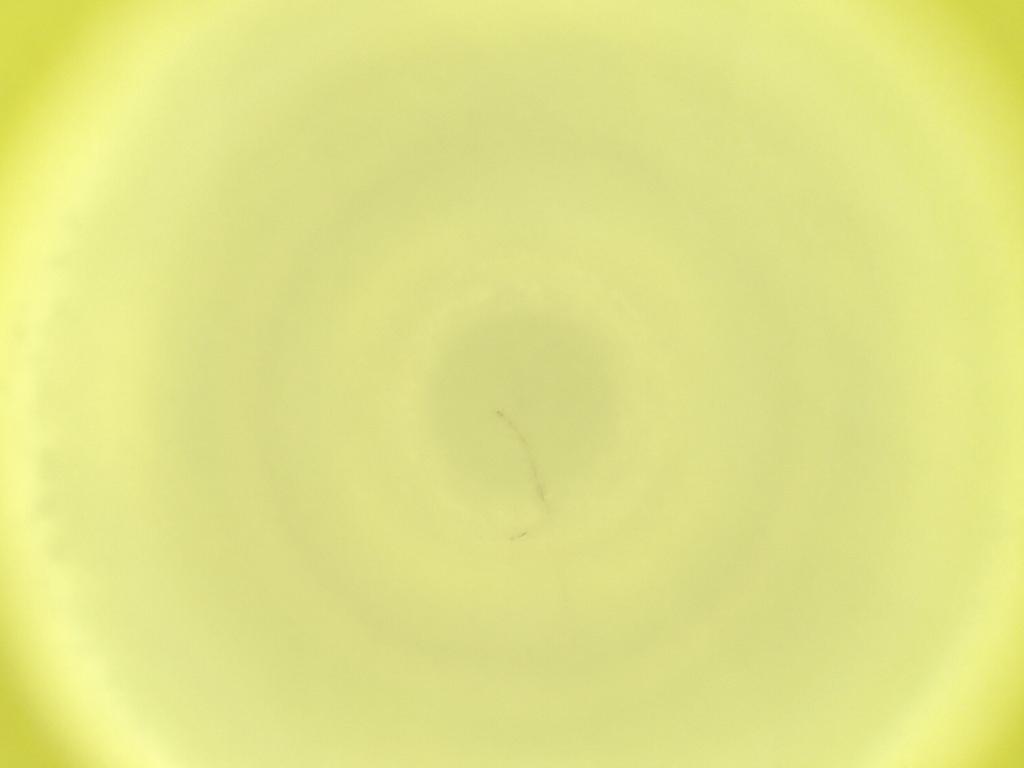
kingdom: Animalia
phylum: Arthropoda
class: Insecta
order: Diptera
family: Cecidomyiidae
